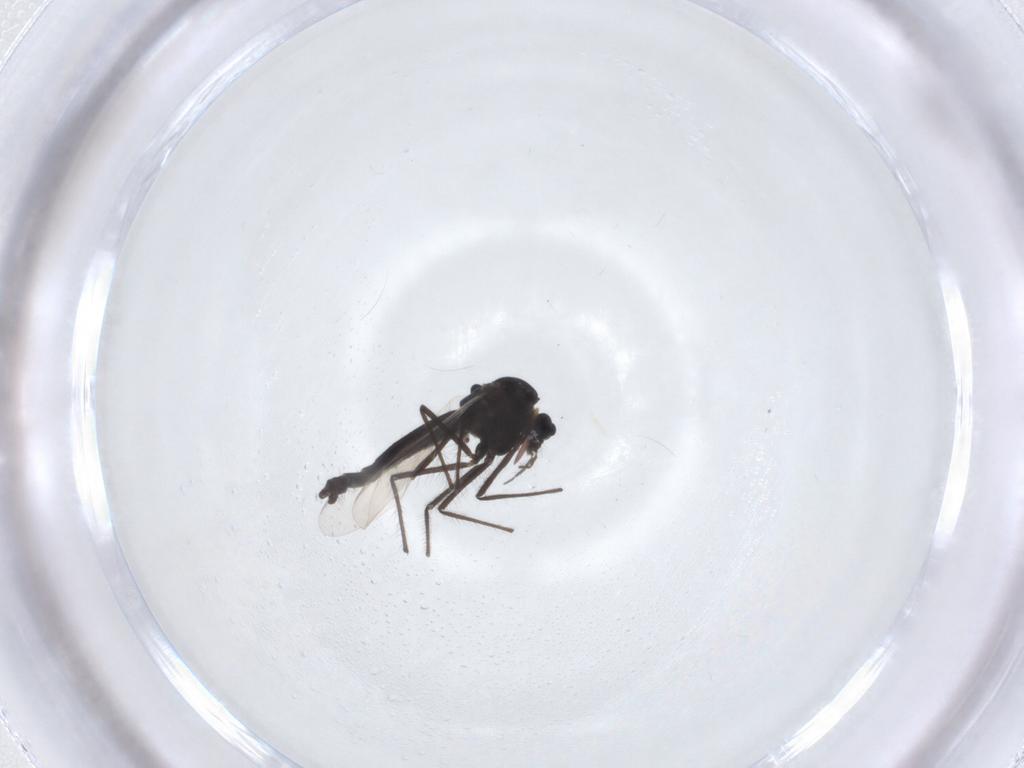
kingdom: Animalia
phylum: Arthropoda
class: Insecta
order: Diptera
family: Chironomidae
